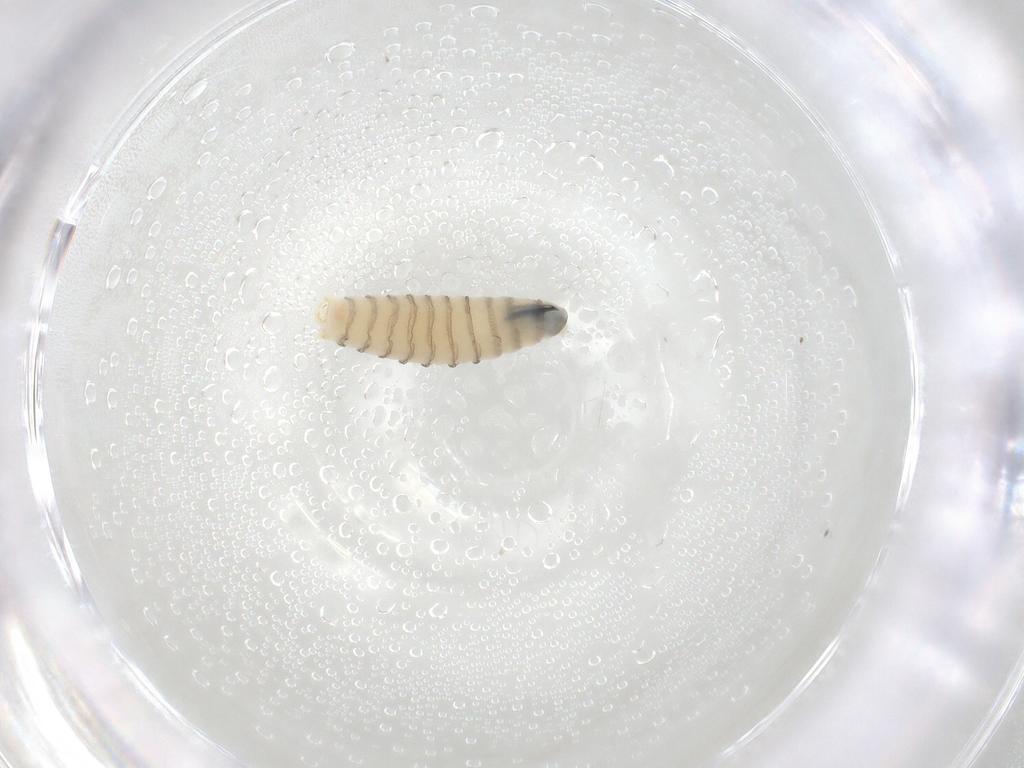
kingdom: Animalia
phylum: Arthropoda
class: Insecta
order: Diptera
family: Sarcophagidae
